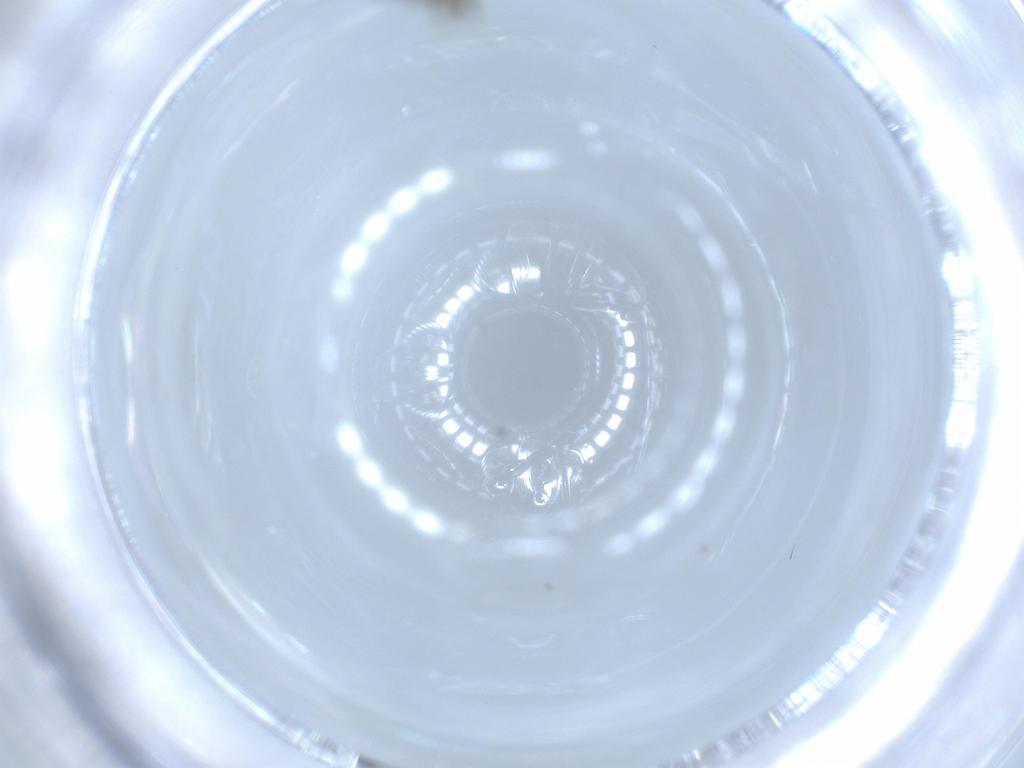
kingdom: Animalia
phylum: Arthropoda
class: Insecta
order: Diptera
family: Ceratopogonidae
